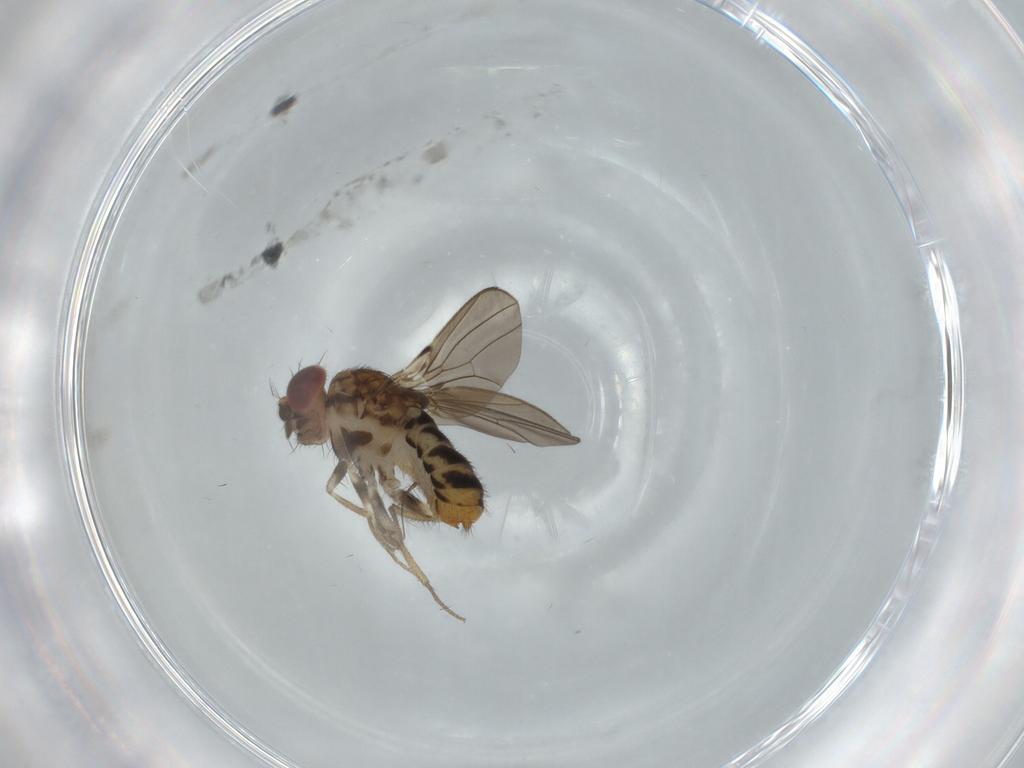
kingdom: Animalia
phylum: Arthropoda
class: Insecta
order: Diptera
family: Drosophilidae
